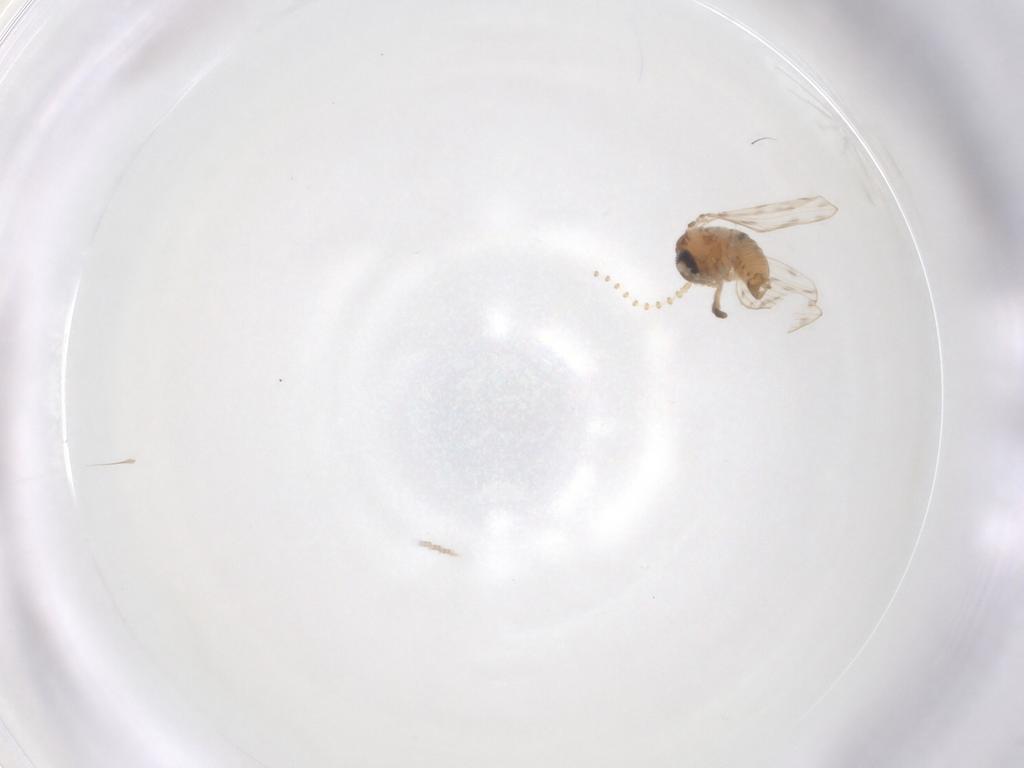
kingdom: Animalia
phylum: Arthropoda
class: Insecta
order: Diptera
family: Psychodidae
